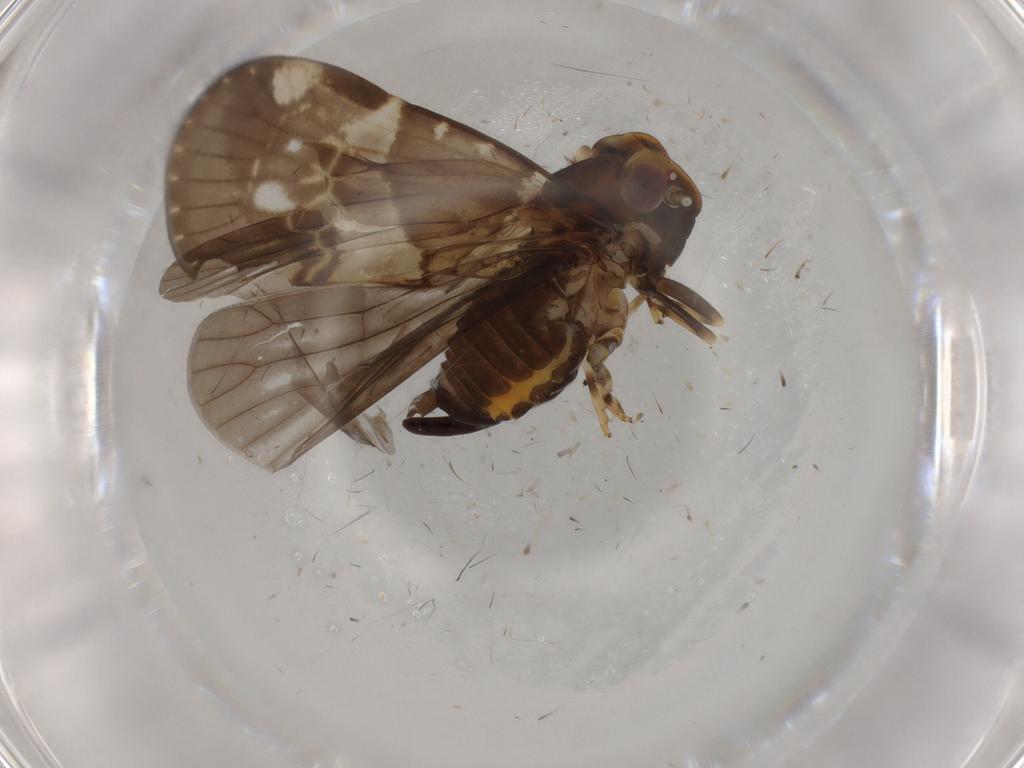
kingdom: Animalia
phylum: Arthropoda
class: Insecta
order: Hemiptera
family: Cixiidae
